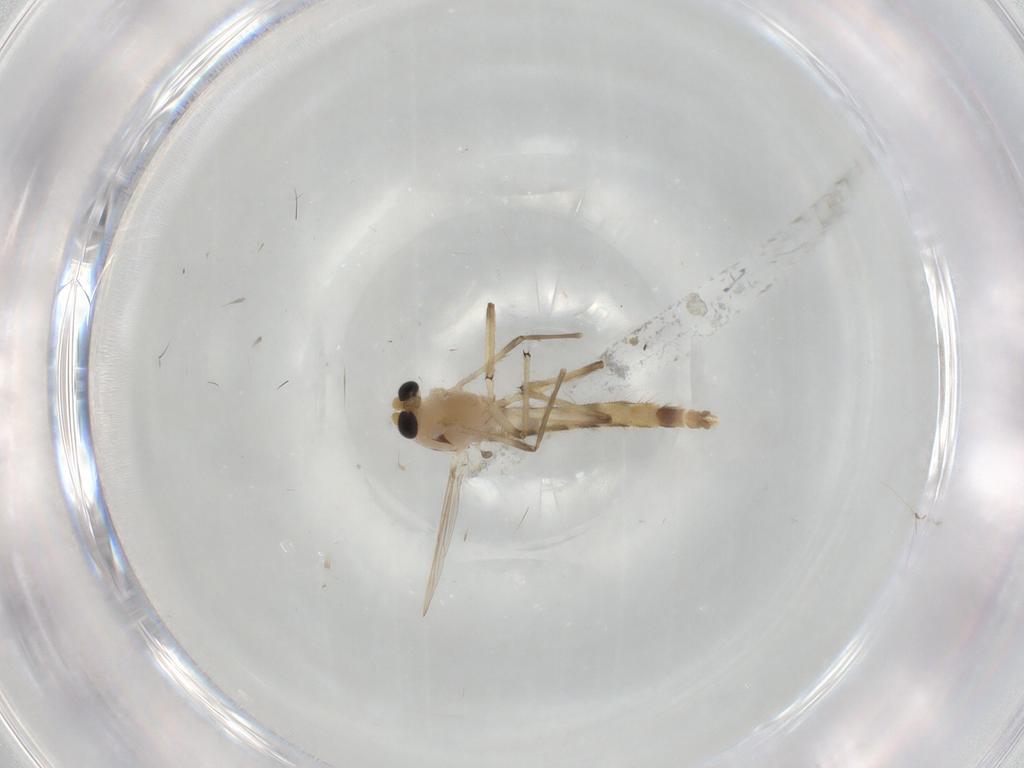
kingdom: Animalia
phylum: Arthropoda
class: Insecta
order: Diptera
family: Chironomidae
